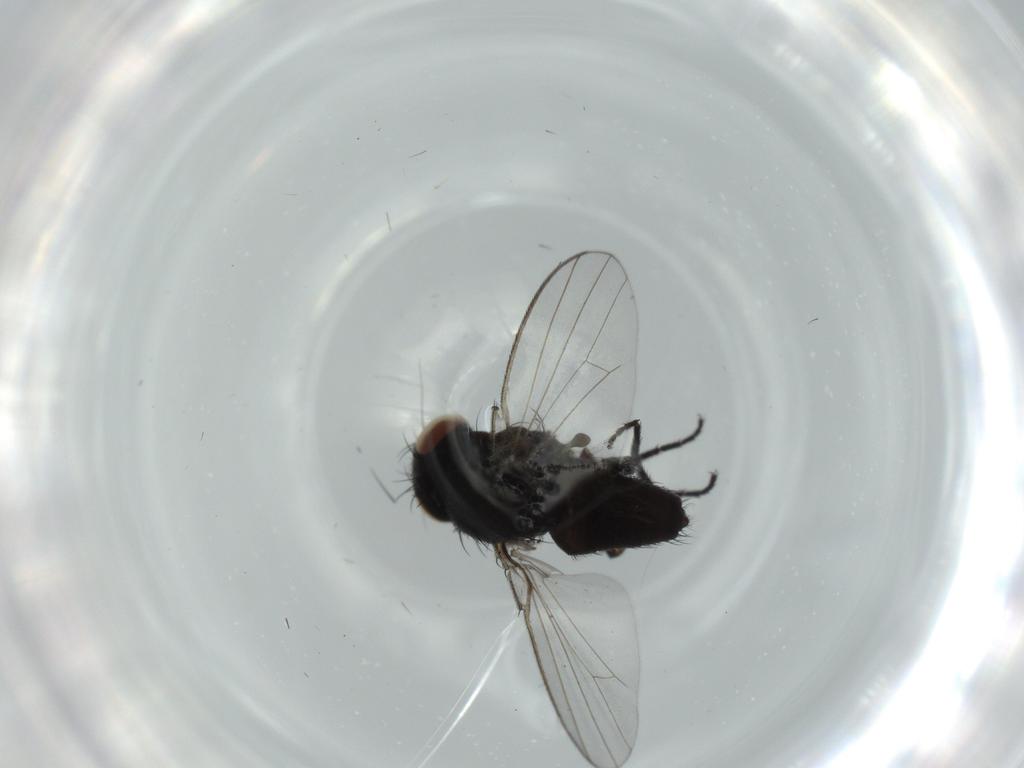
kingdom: Animalia
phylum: Arthropoda
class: Insecta
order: Diptera
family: Milichiidae
